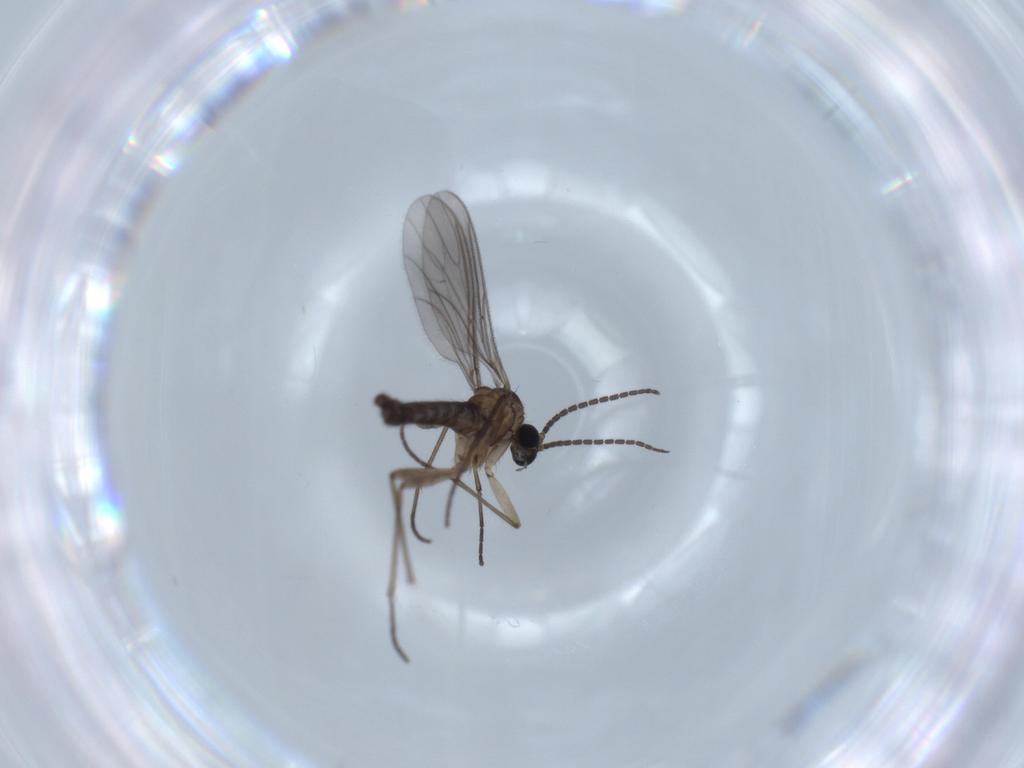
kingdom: Animalia
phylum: Arthropoda
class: Insecta
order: Diptera
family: Sciaridae
